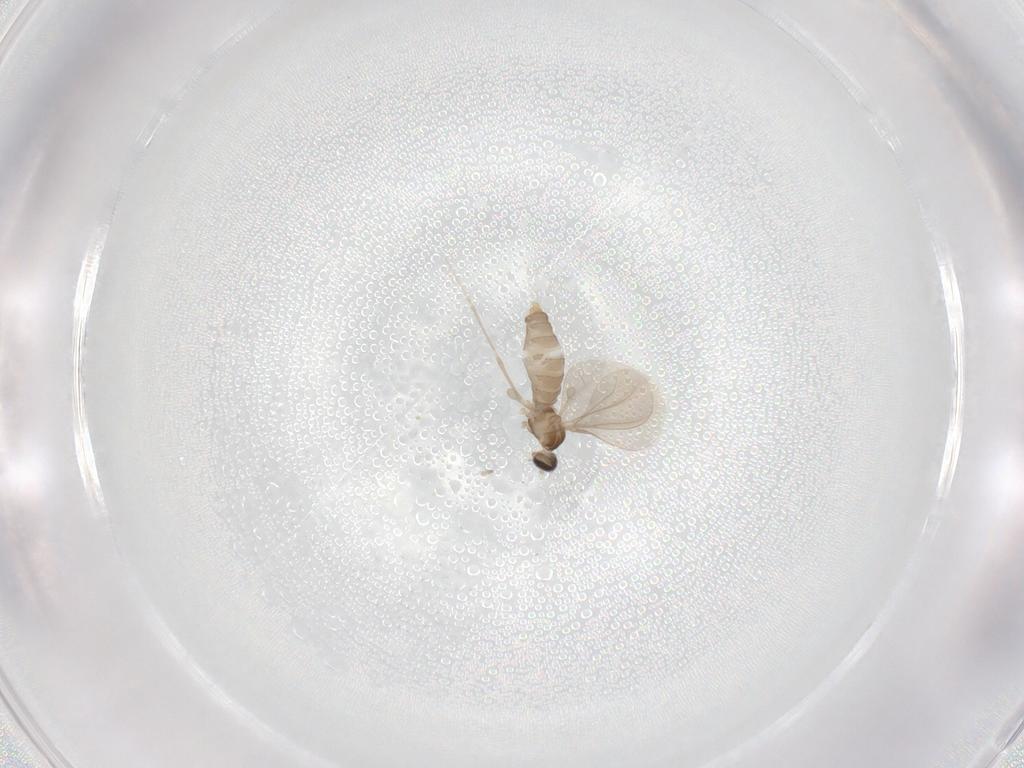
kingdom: Animalia
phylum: Arthropoda
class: Insecta
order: Diptera
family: Cecidomyiidae
